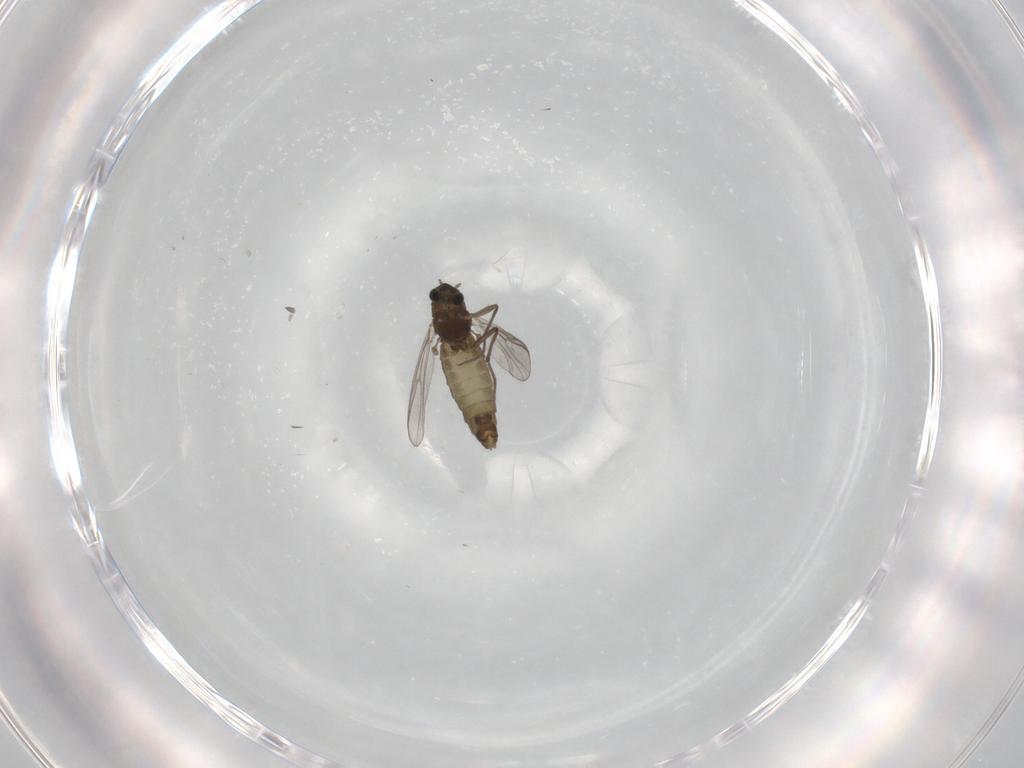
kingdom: Animalia
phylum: Arthropoda
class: Insecta
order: Diptera
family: Chironomidae
